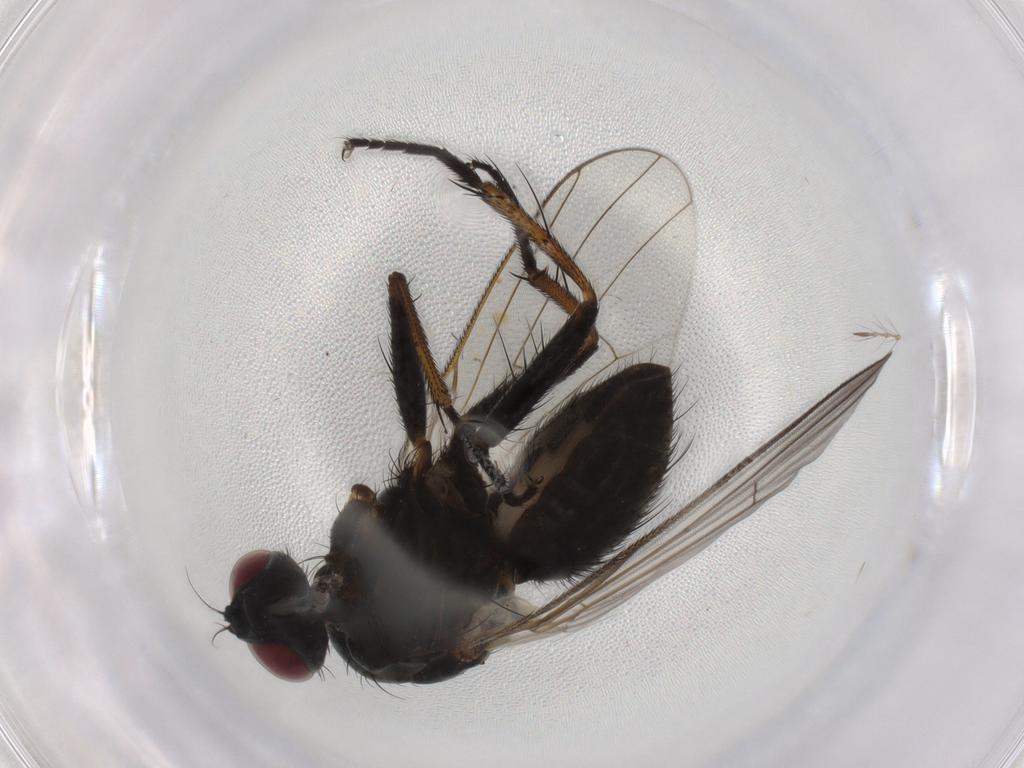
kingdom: Animalia
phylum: Arthropoda
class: Insecta
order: Diptera
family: Muscidae
